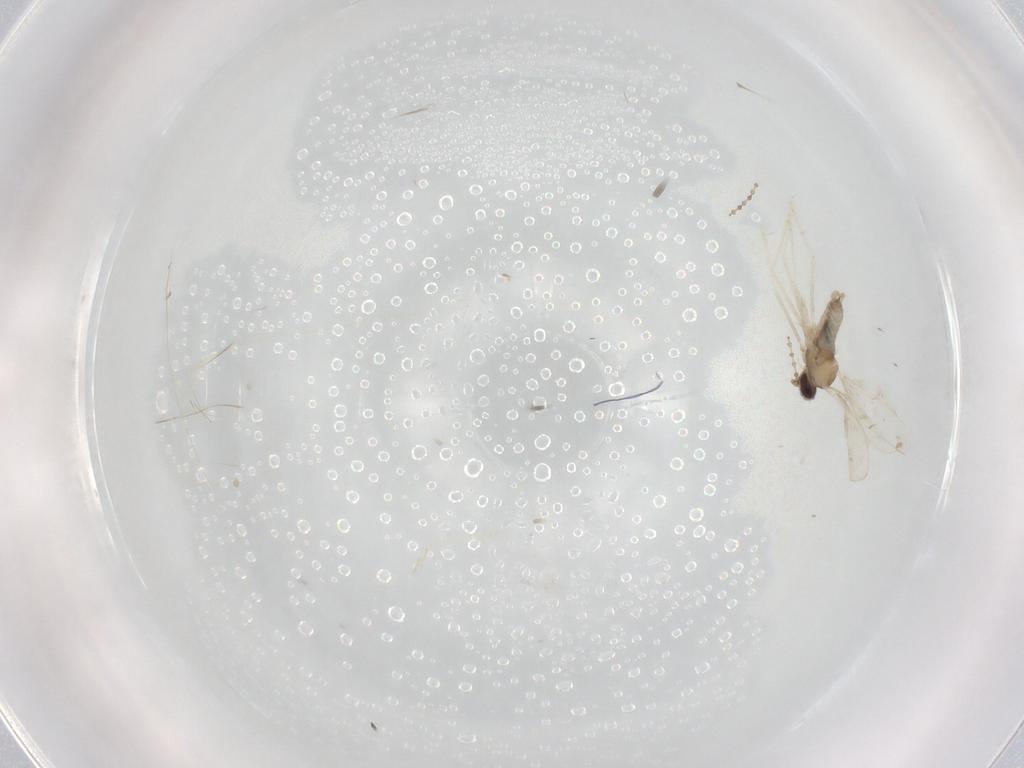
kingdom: Animalia
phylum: Arthropoda
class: Insecta
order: Diptera
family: Cecidomyiidae
